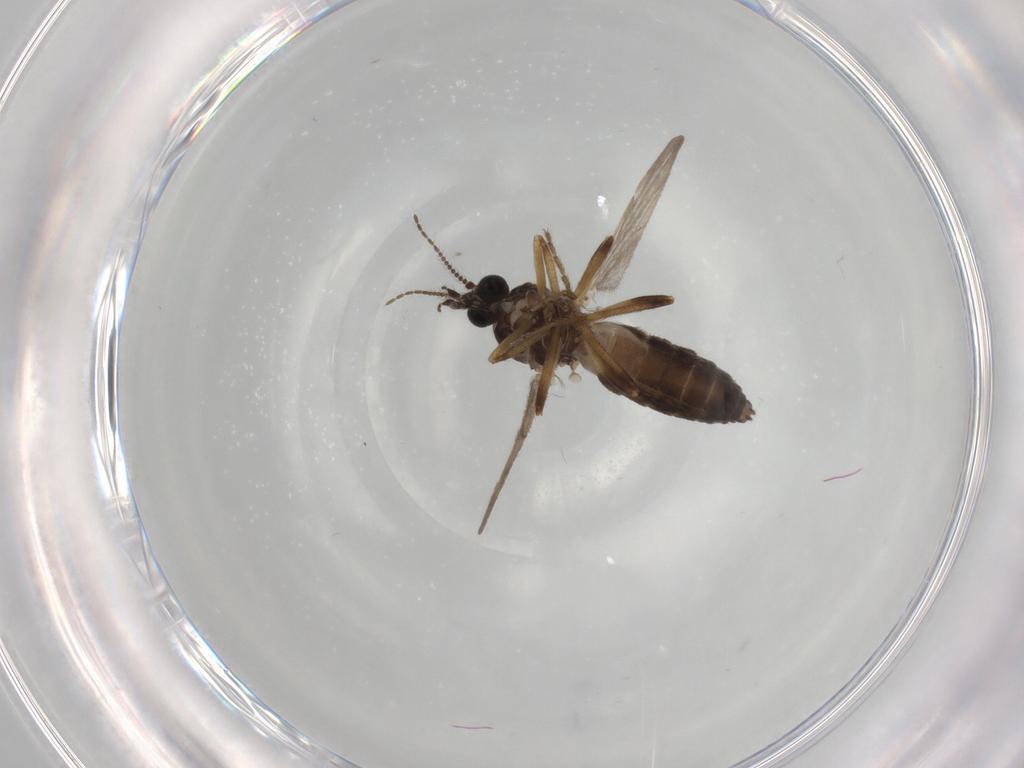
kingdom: Animalia
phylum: Arthropoda
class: Insecta
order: Diptera
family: Ceratopogonidae
